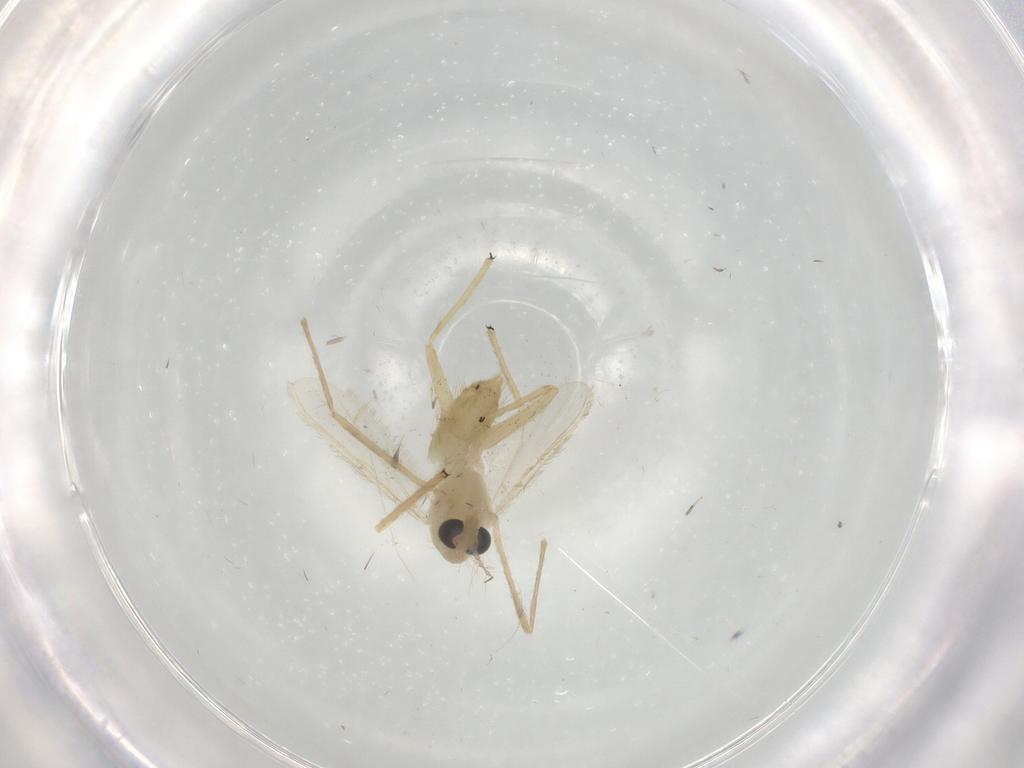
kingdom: Animalia
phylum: Arthropoda
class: Insecta
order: Diptera
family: Chironomidae
